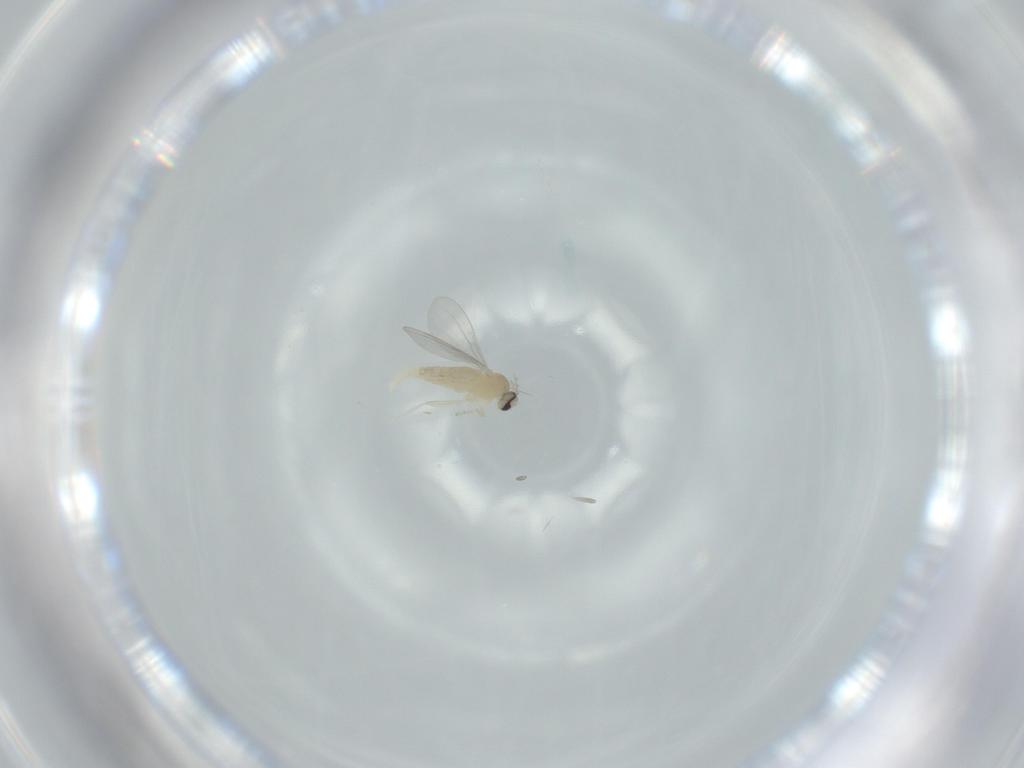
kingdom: Animalia
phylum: Arthropoda
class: Insecta
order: Diptera
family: Cecidomyiidae
